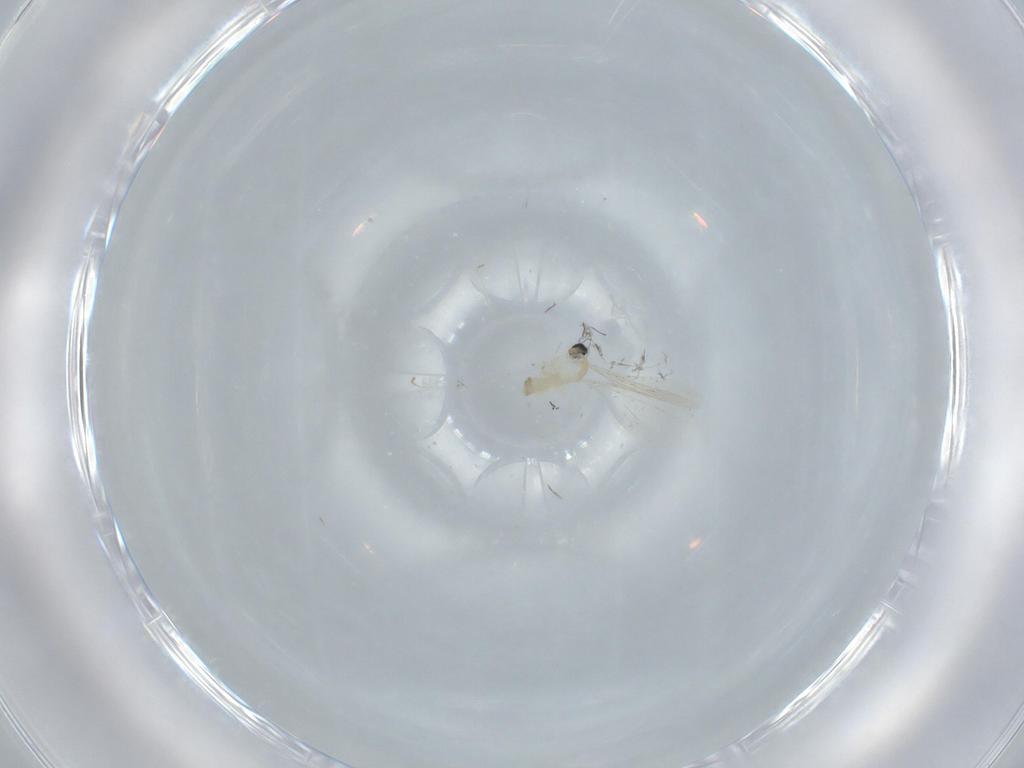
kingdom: Animalia
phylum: Arthropoda
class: Insecta
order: Diptera
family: Cecidomyiidae
